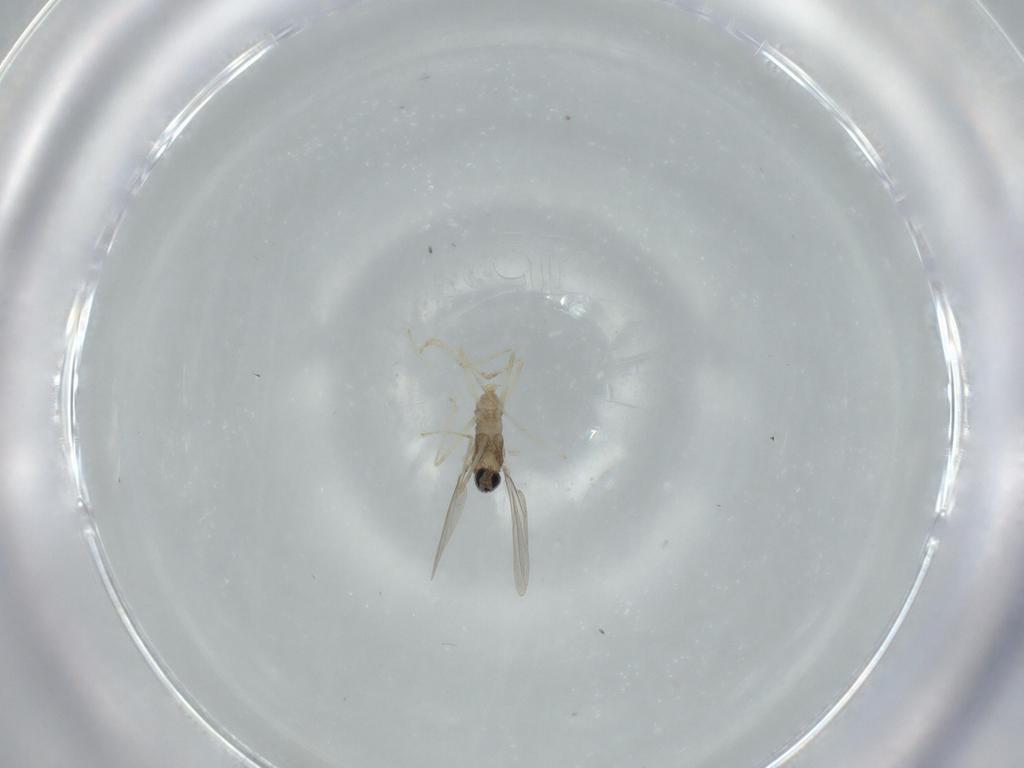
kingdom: Animalia
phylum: Arthropoda
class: Insecta
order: Diptera
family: Cecidomyiidae
